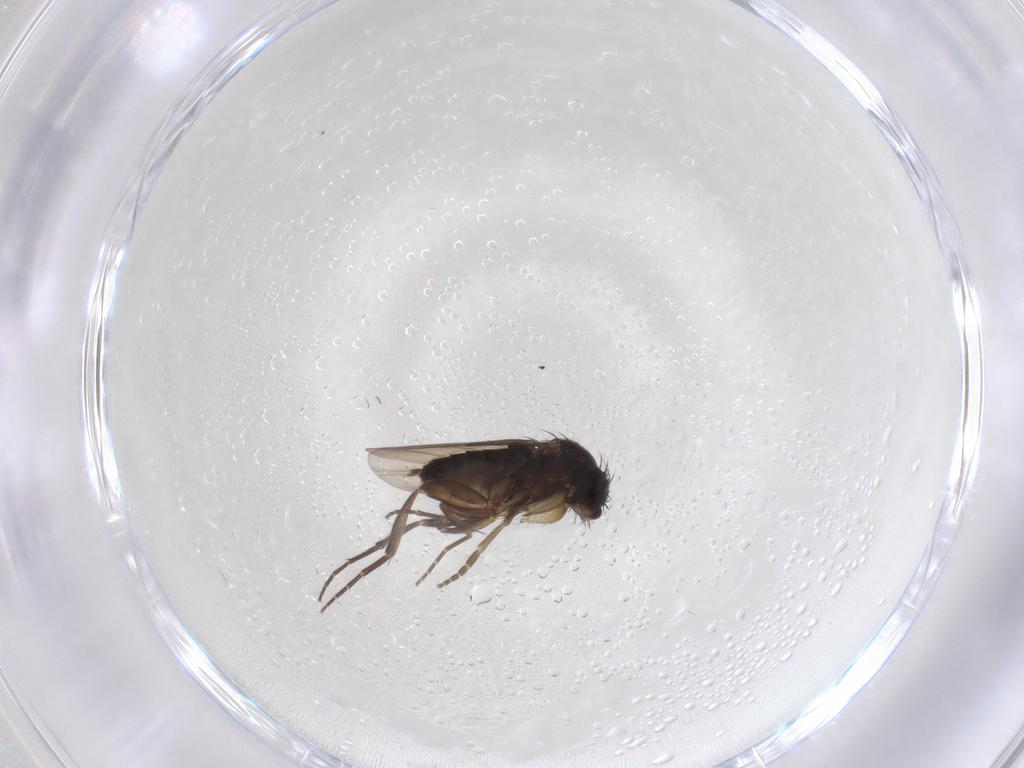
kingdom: Animalia
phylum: Arthropoda
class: Insecta
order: Diptera
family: Phoridae
